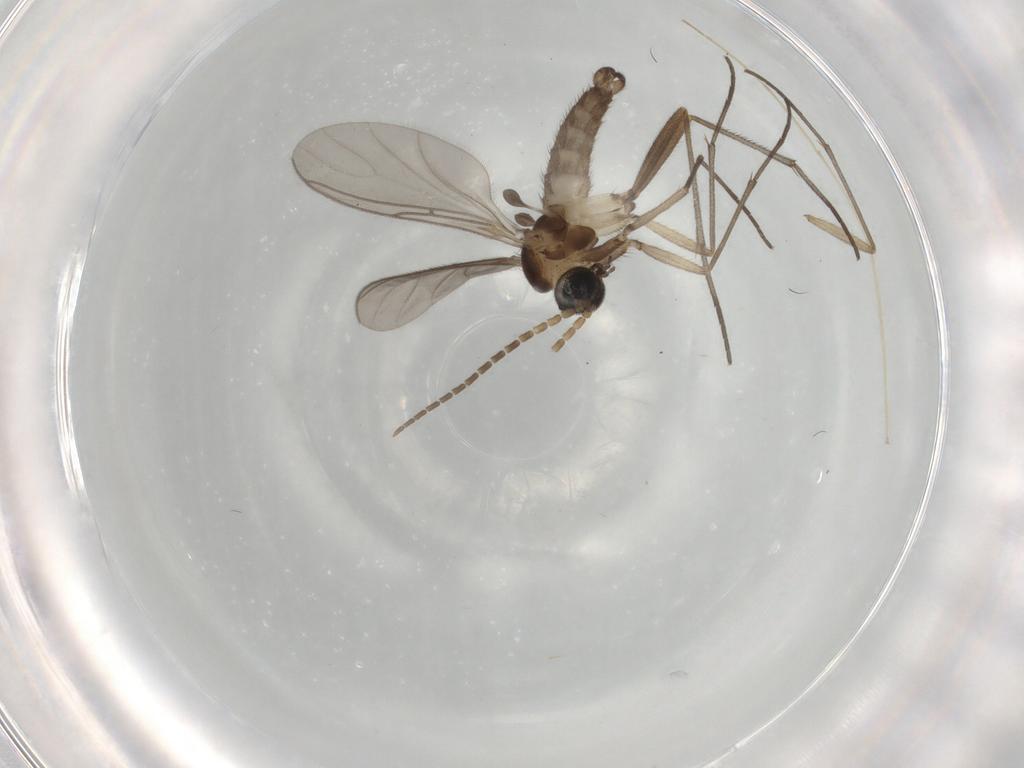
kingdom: Animalia
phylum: Arthropoda
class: Insecta
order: Diptera
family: Sciaridae
